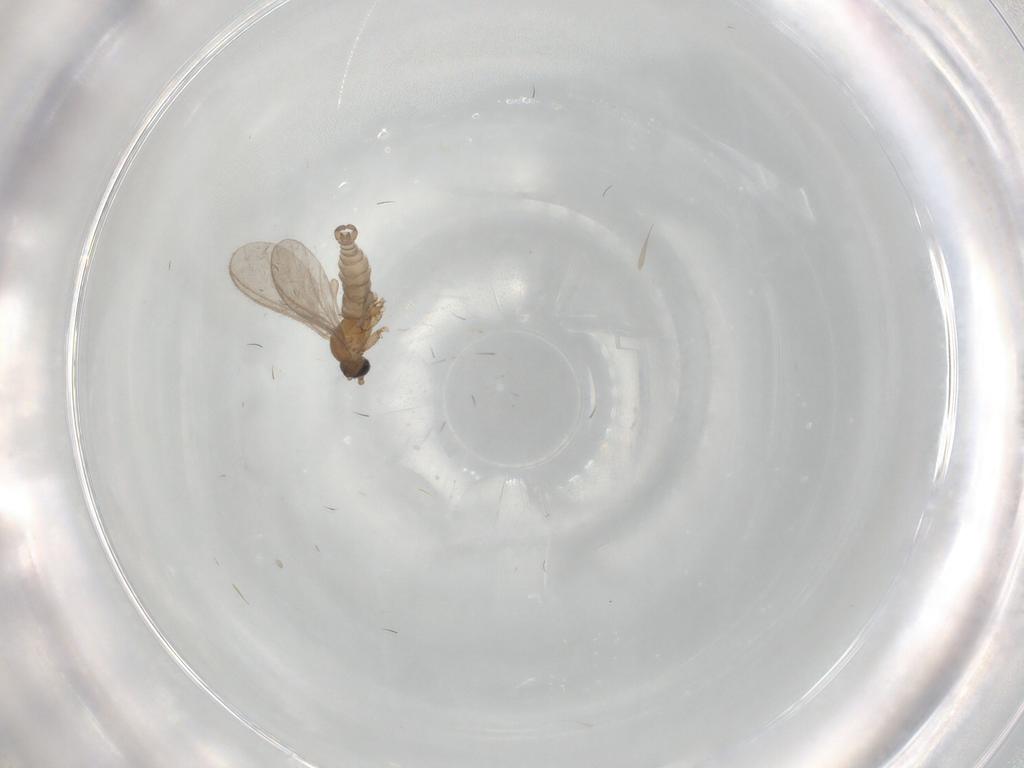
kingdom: Animalia
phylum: Arthropoda
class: Insecta
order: Diptera
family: Sciaridae
